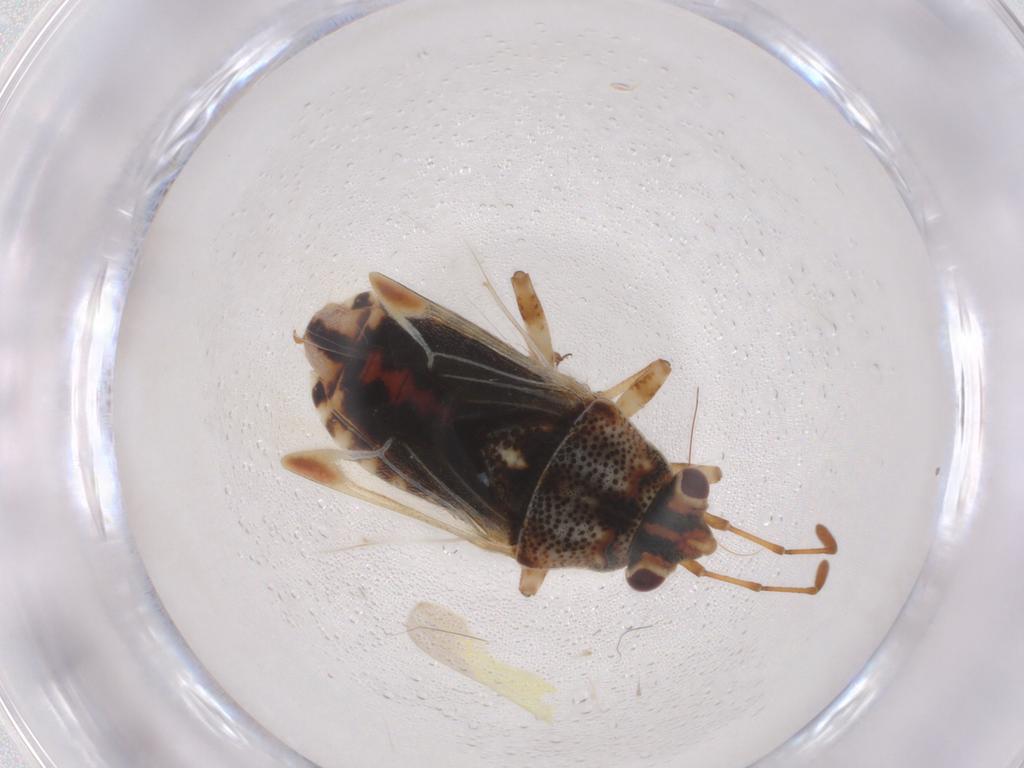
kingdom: Animalia
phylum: Arthropoda
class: Insecta
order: Hemiptera
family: Lygaeidae
